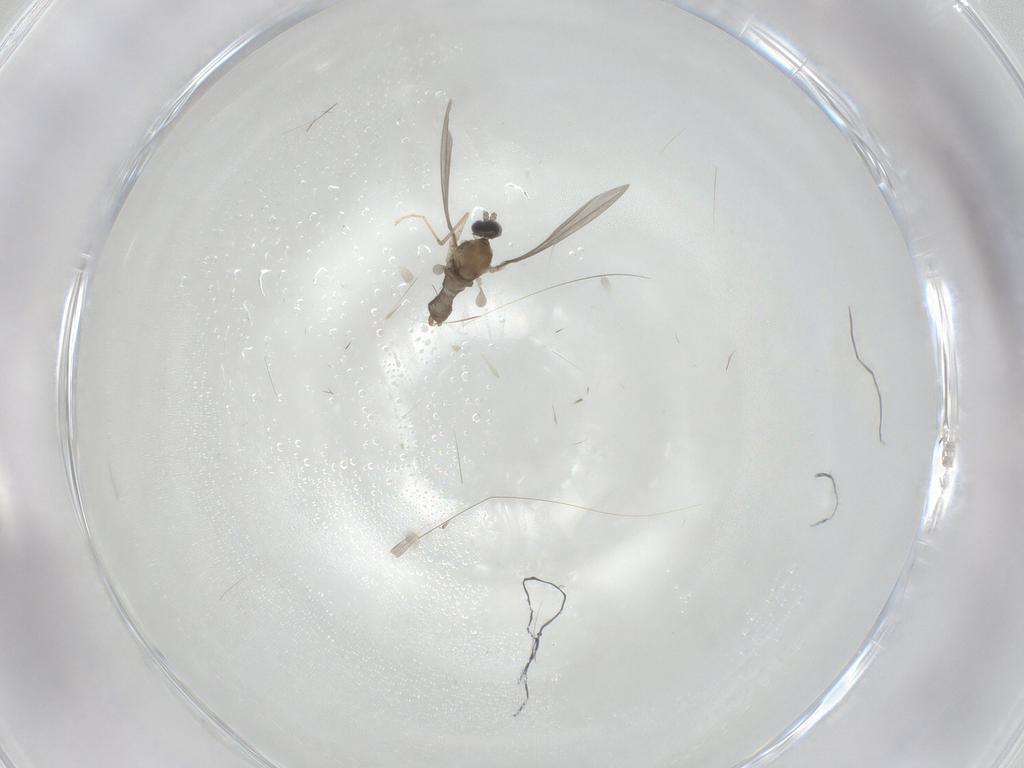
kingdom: Animalia
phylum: Arthropoda
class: Insecta
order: Diptera
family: Cecidomyiidae
